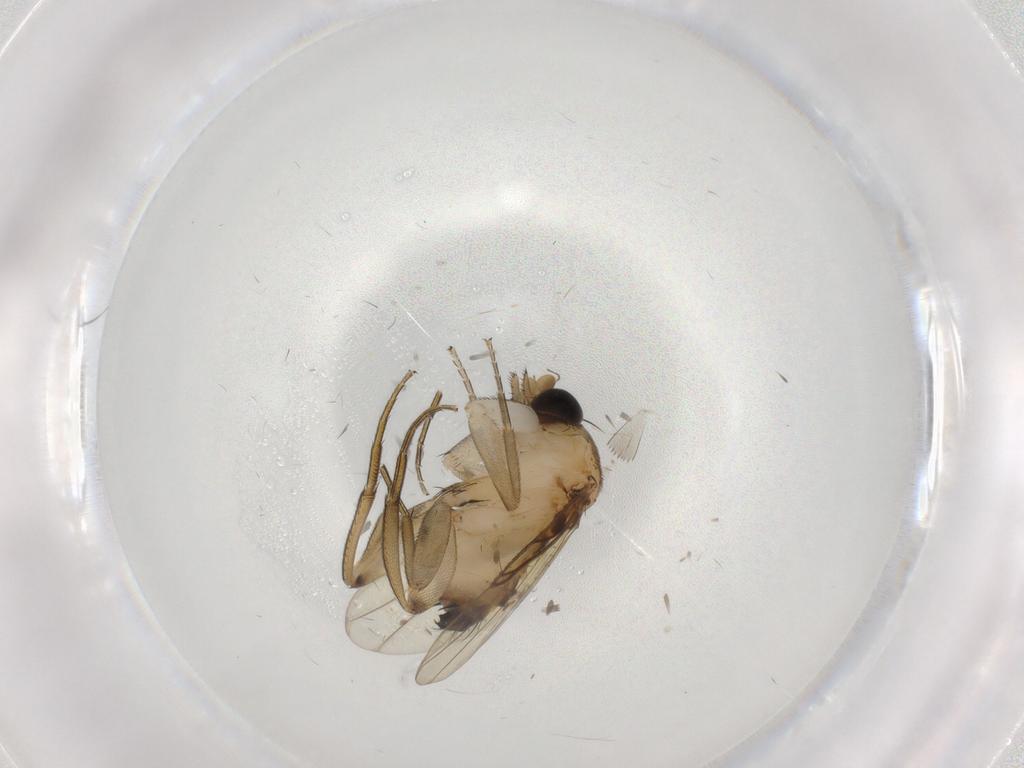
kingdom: Animalia
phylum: Arthropoda
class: Insecta
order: Diptera
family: Phoridae
